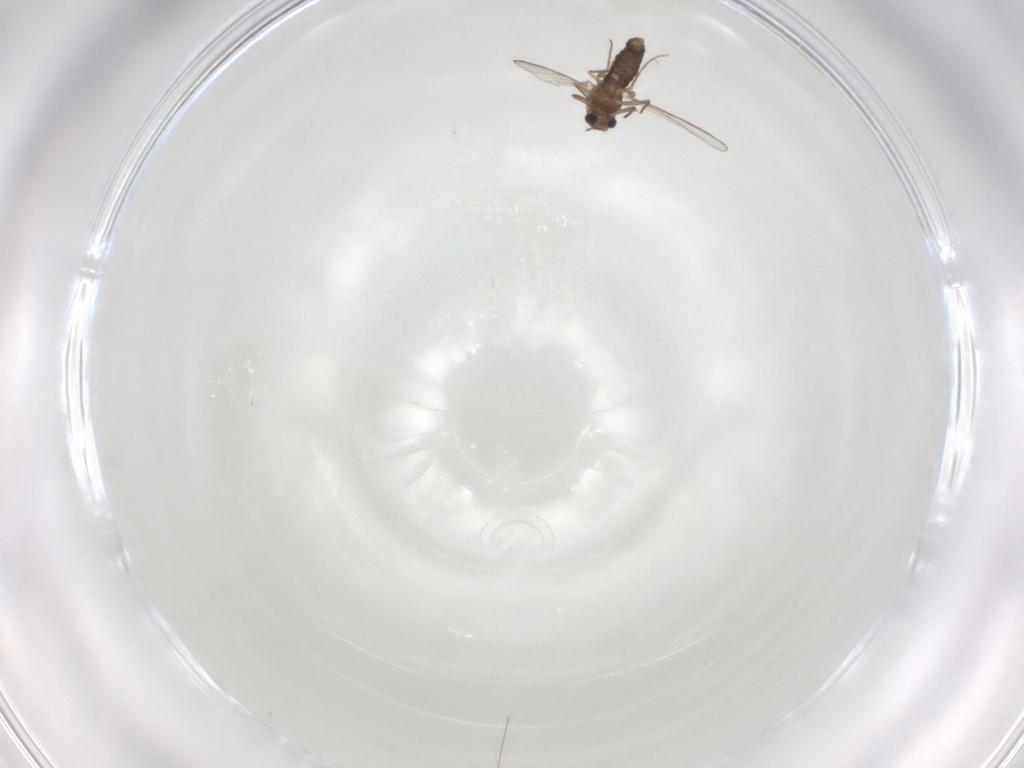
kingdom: Animalia
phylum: Arthropoda
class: Insecta
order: Diptera
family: Chironomidae
